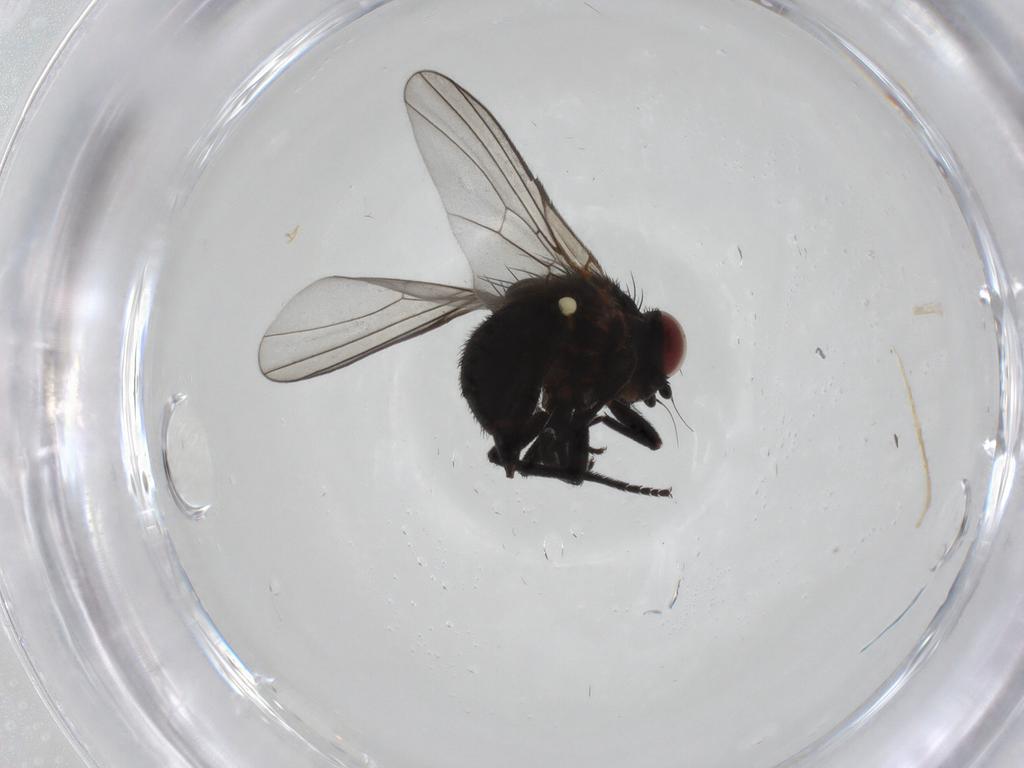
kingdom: Animalia
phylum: Arthropoda
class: Insecta
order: Diptera
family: Agromyzidae
